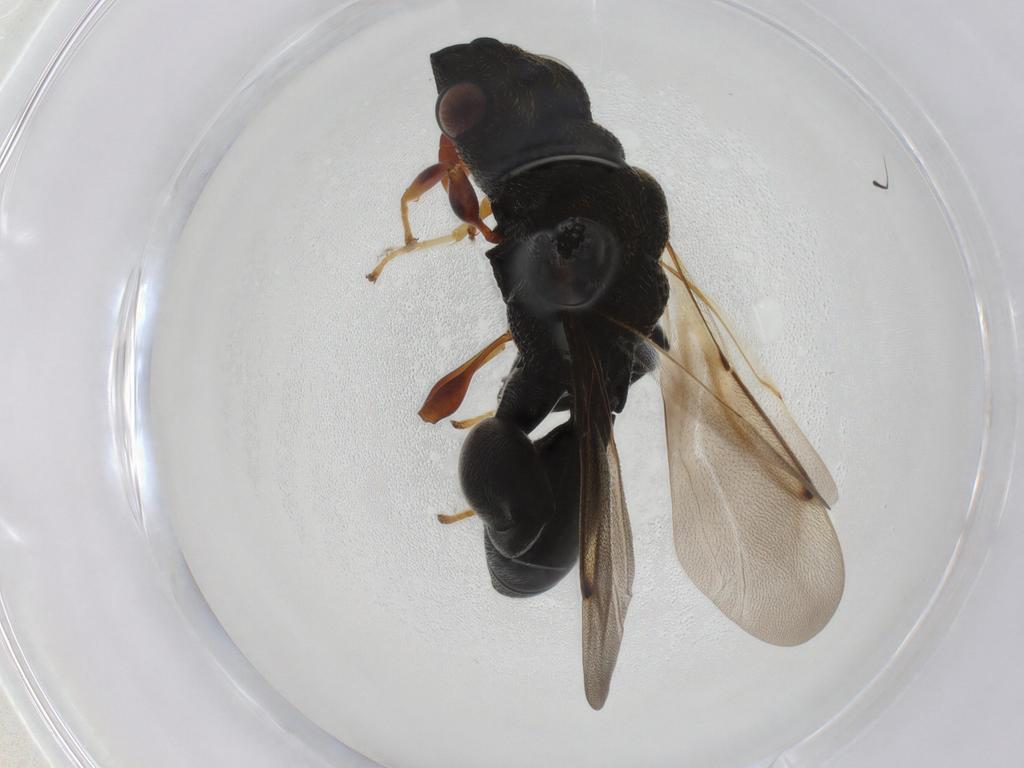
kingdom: Animalia
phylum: Arthropoda
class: Insecta
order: Hymenoptera
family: Chalcididae
